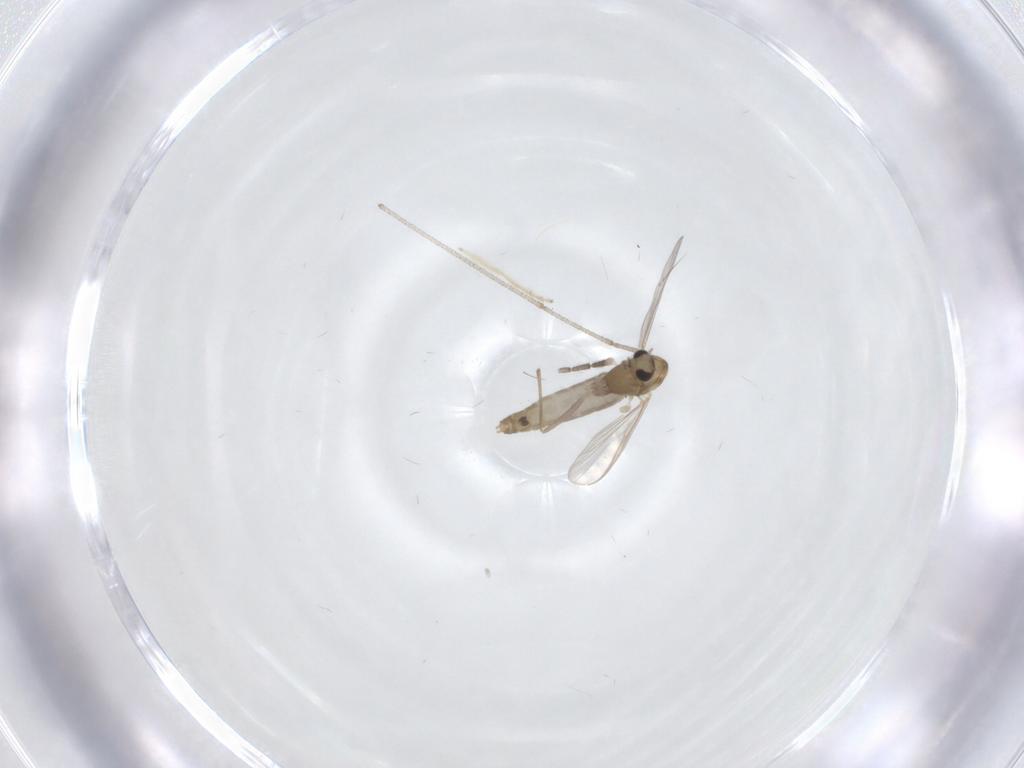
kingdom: Animalia
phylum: Arthropoda
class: Insecta
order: Diptera
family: Chironomidae
